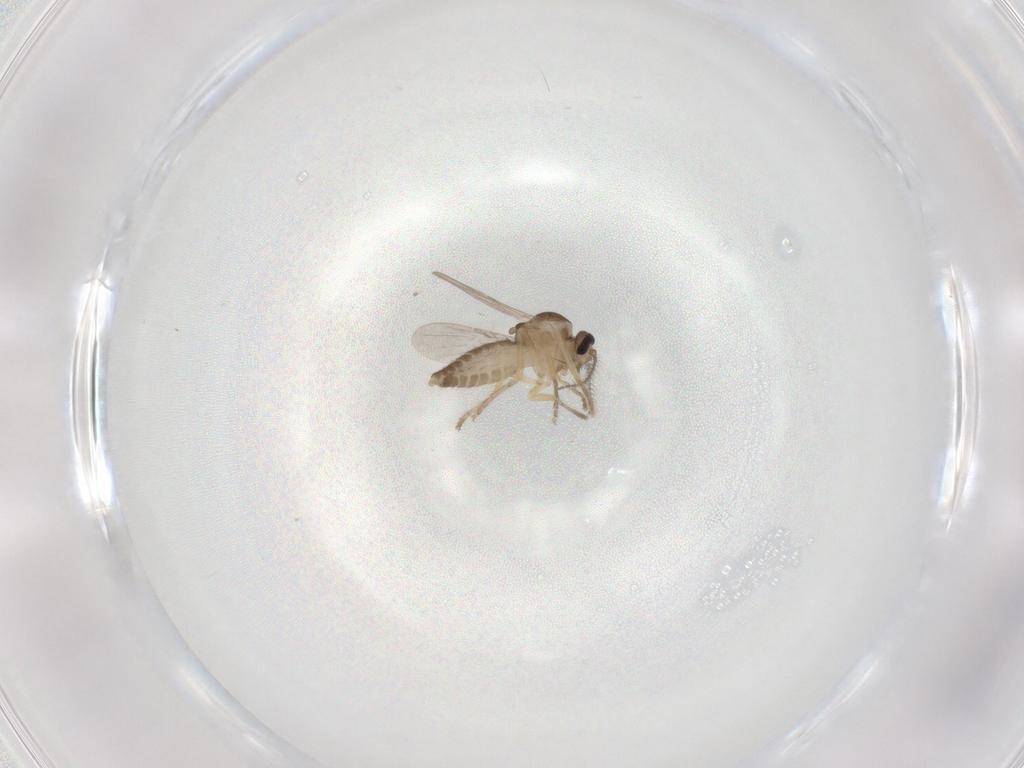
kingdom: Animalia
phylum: Arthropoda
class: Insecta
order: Diptera
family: Ceratopogonidae
